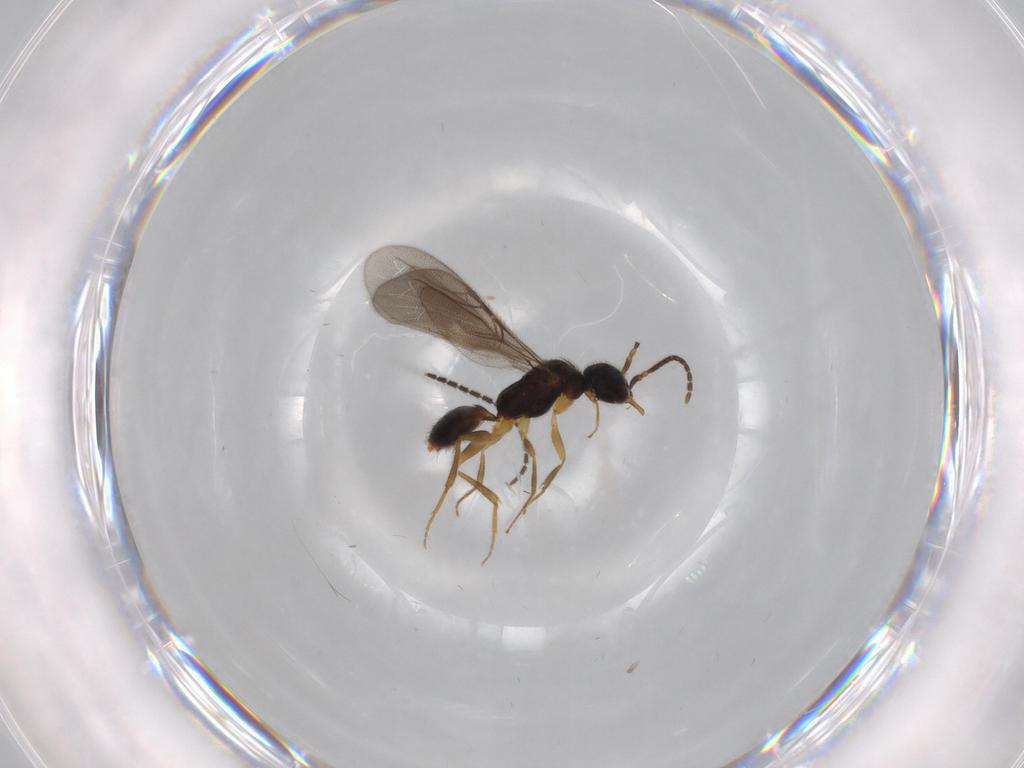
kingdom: Animalia
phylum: Arthropoda
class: Insecta
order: Hymenoptera
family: Bethylidae
